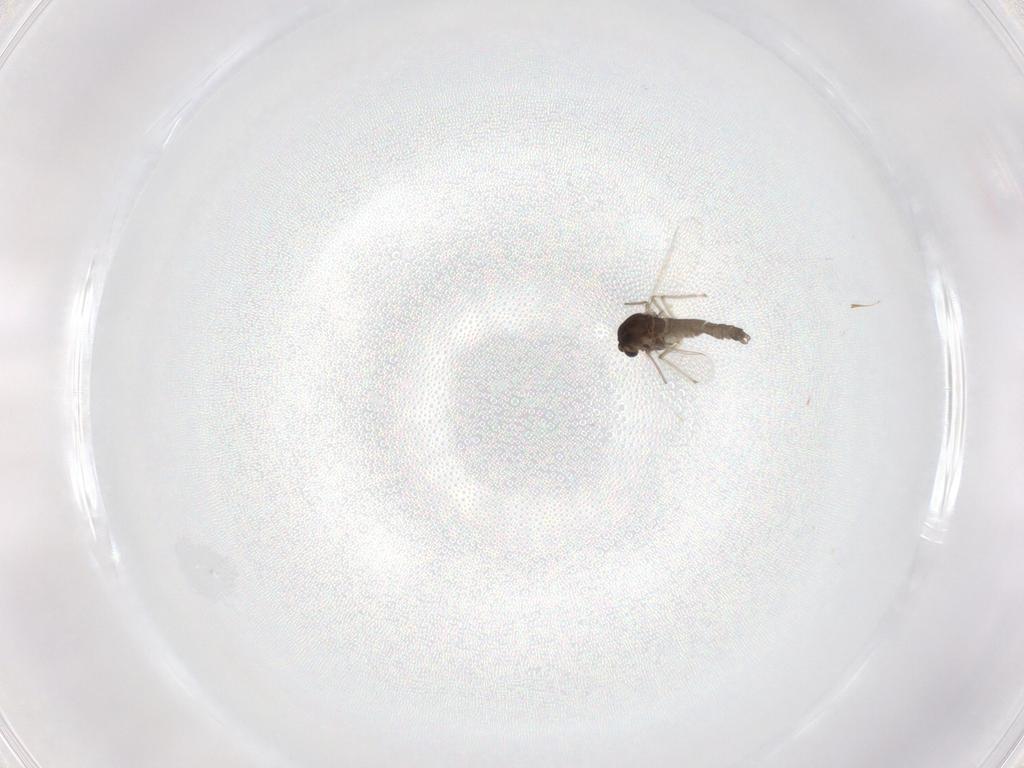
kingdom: Animalia
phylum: Arthropoda
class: Insecta
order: Diptera
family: Chironomidae
